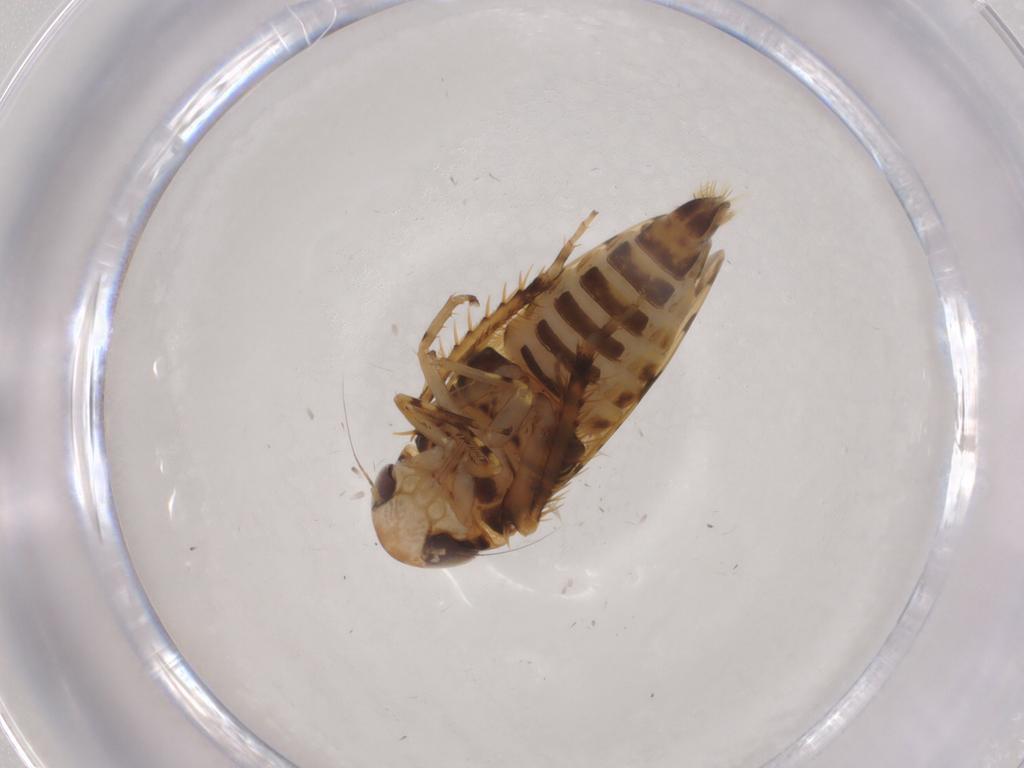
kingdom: Animalia
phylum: Arthropoda
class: Insecta
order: Hemiptera
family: Cicadellidae
